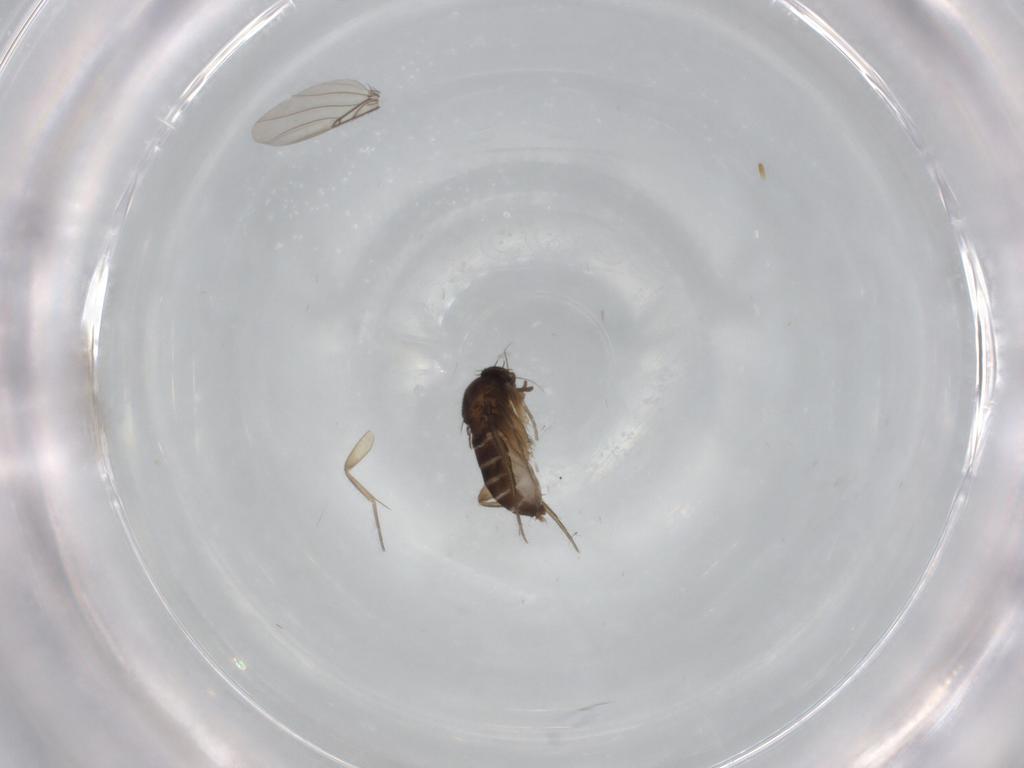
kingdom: Animalia
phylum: Arthropoda
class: Insecta
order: Diptera
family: Phoridae
